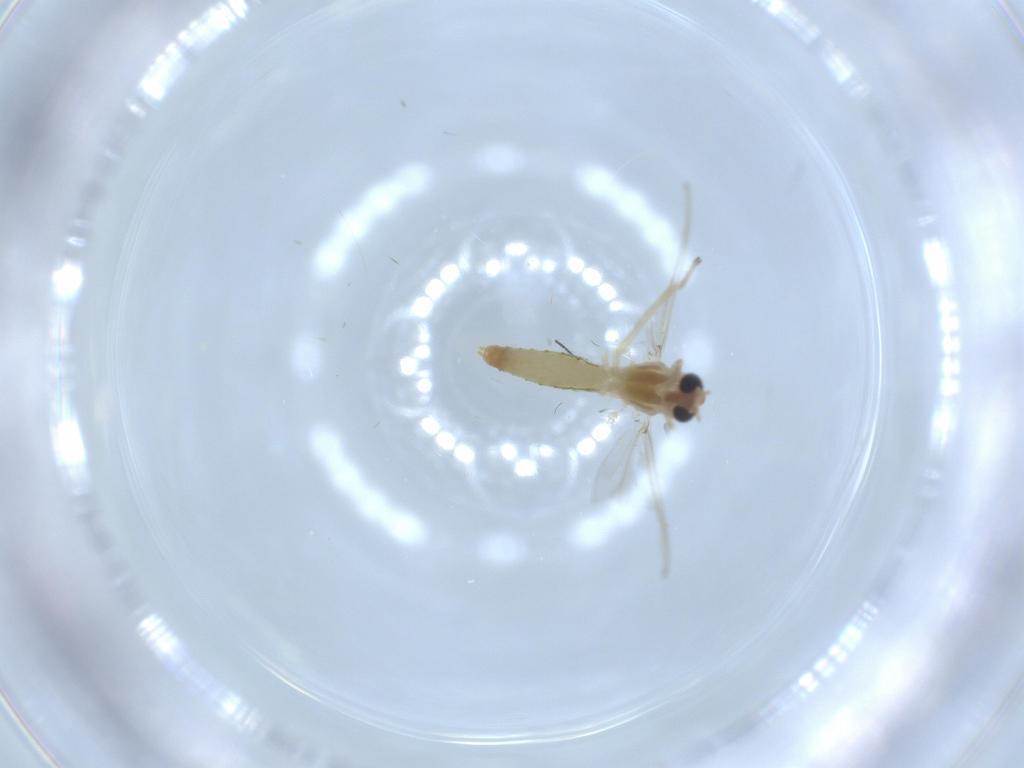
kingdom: Animalia
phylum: Arthropoda
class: Insecta
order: Diptera
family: Chironomidae
